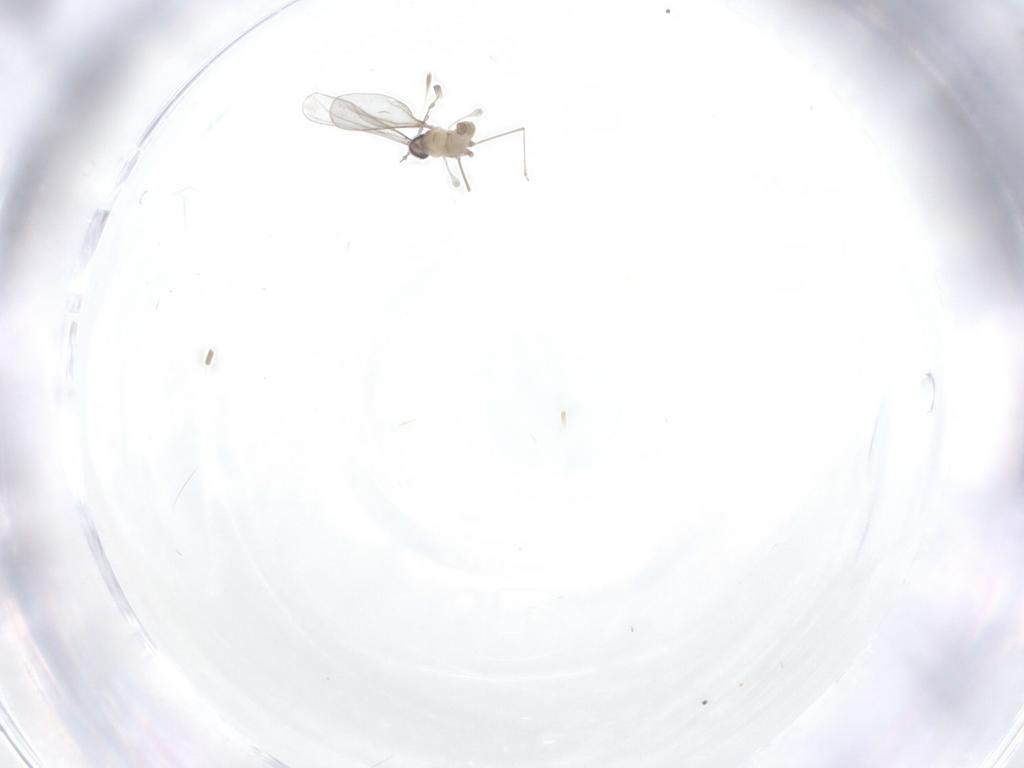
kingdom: Animalia
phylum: Arthropoda
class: Insecta
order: Diptera
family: Cecidomyiidae
